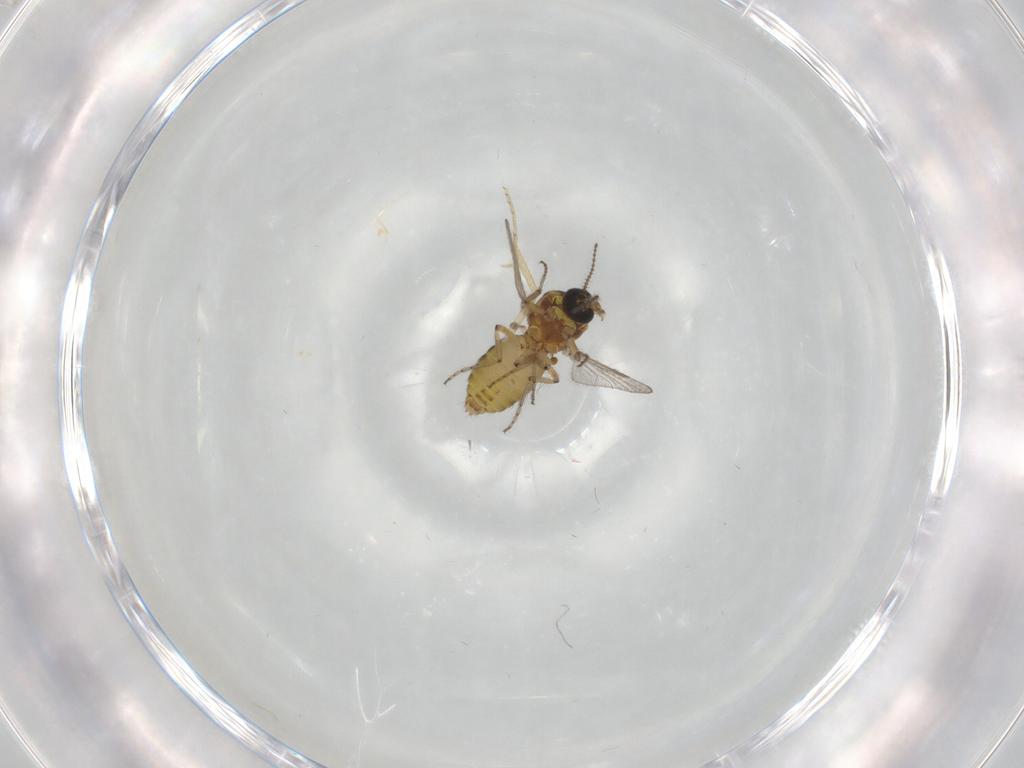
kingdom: Animalia
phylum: Arthropoda
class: Insecta
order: Diptera
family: Ceratopogonidae
